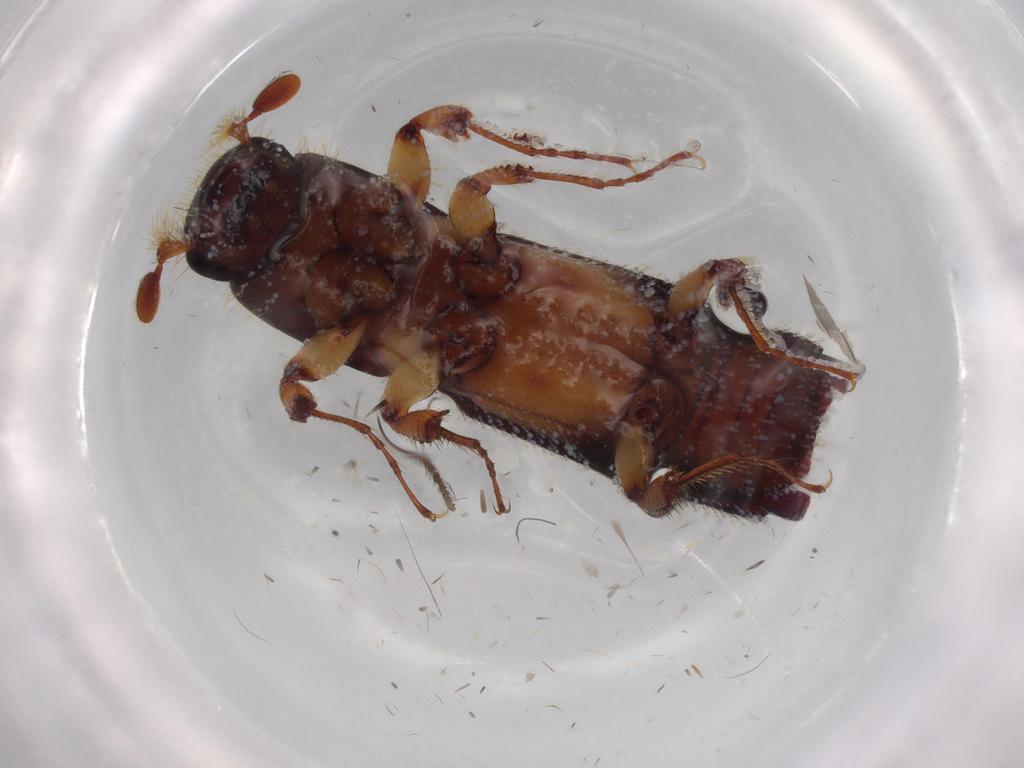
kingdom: Animalia
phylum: Arthropoda
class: Insecta
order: Coleoptera
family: Curculionidae
